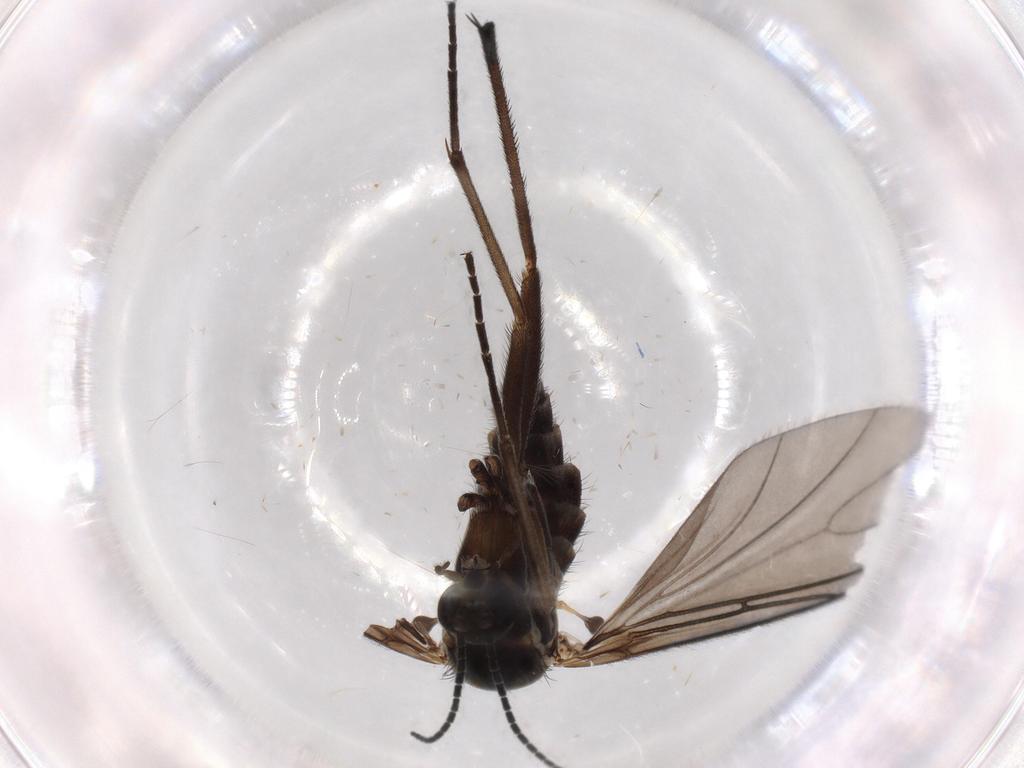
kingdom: Animalia
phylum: Arthropoda
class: Insecta
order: Diptera
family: Sciaridae
